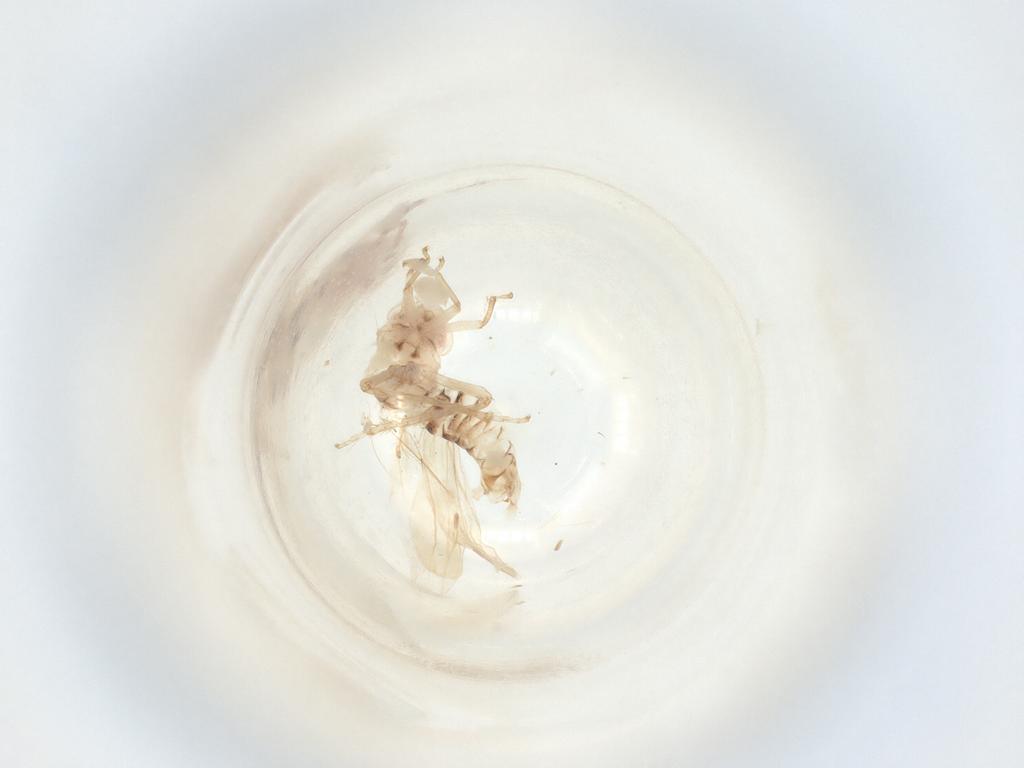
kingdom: Animalia
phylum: Arthropoda
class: Insecta
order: Hemiptera
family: Cicadellidae
